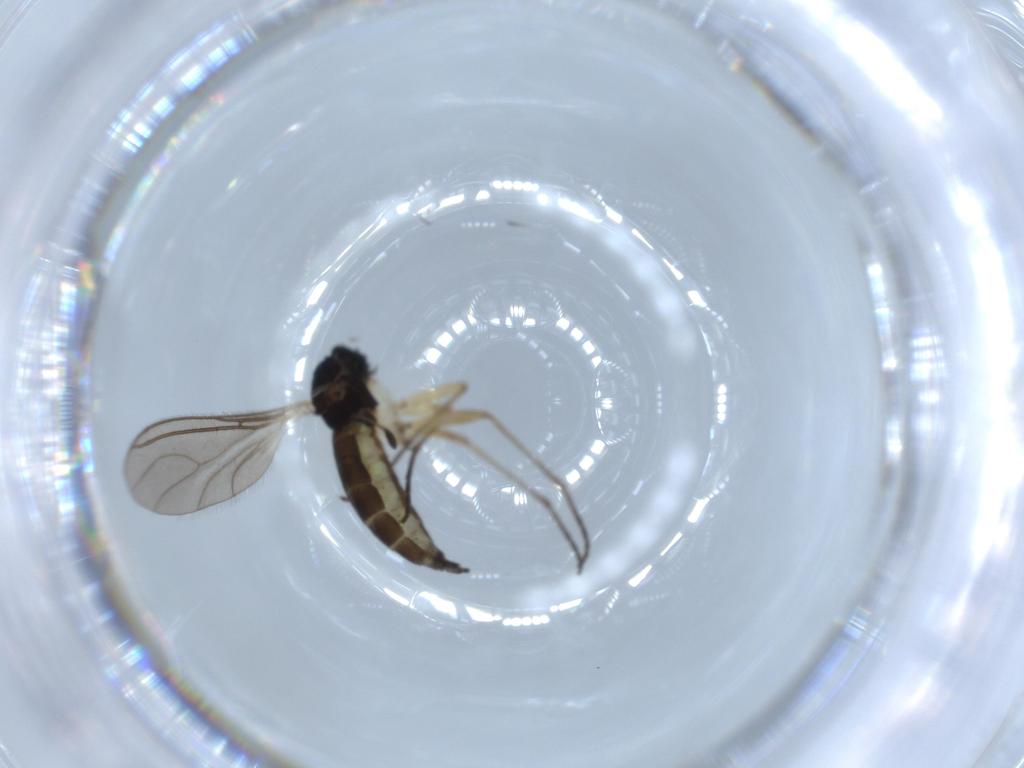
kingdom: Animalia
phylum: Arthropoda
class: Insecta
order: Diptera
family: Sciaridae
